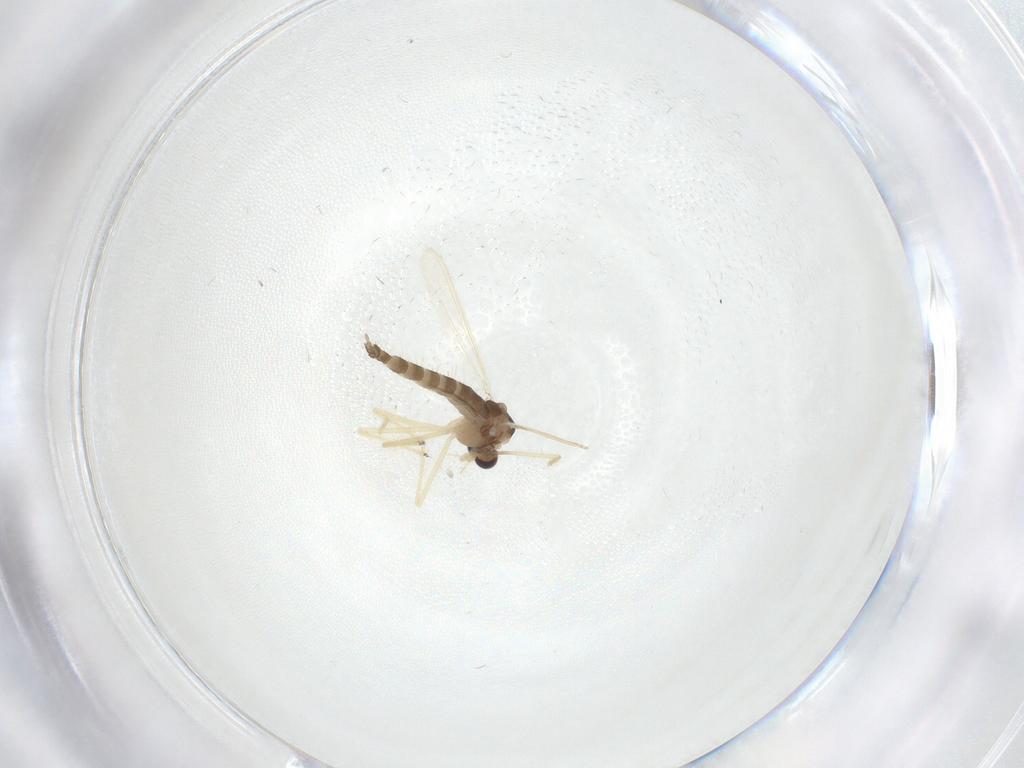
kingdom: Animalia
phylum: Arthropoda
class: Insecta
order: Diptera
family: Chironomidae
